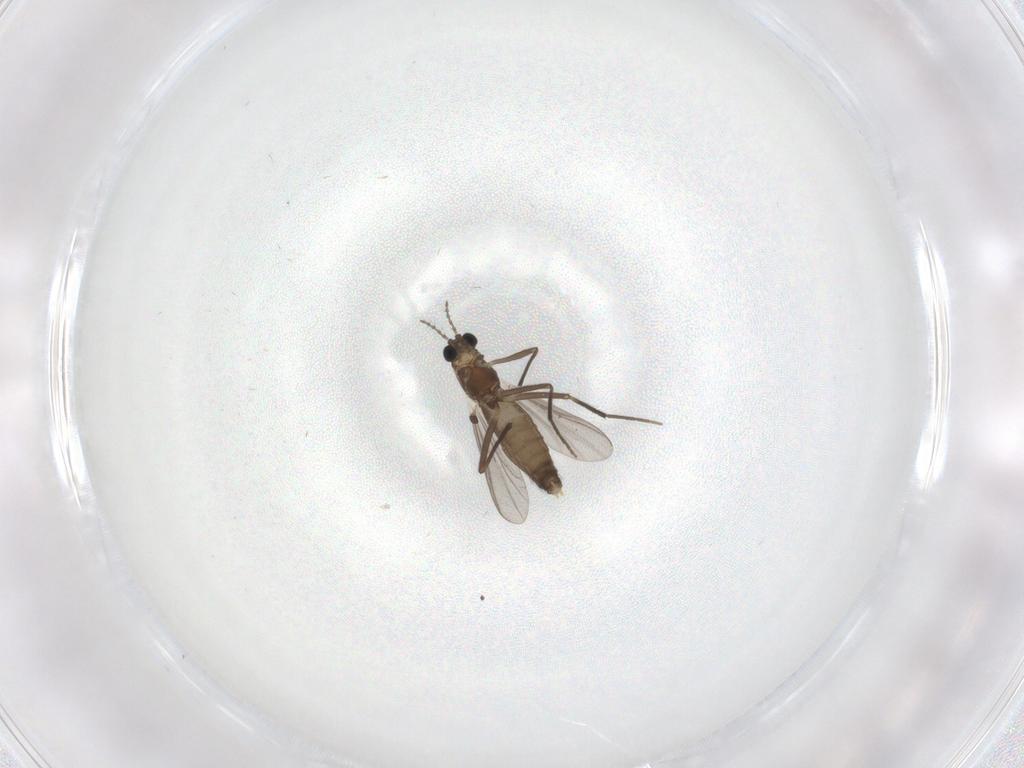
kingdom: Animalia
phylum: Arthropoda
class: Insecta
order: Diptera
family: Chironomidae
